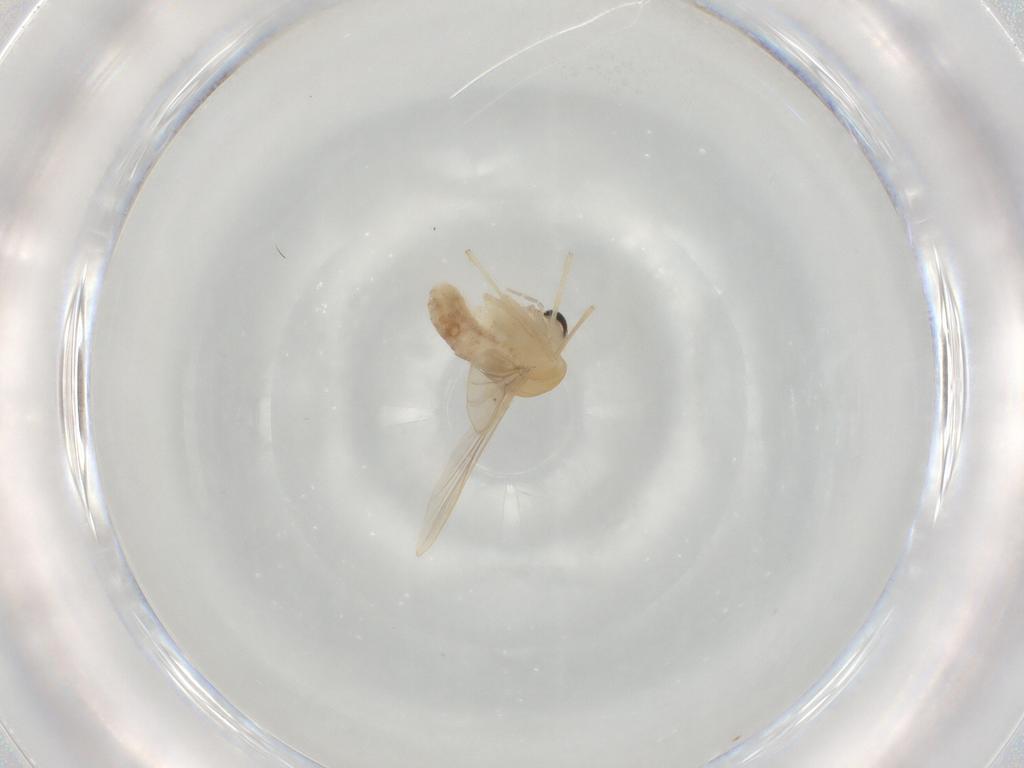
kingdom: Animalia
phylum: Arthropoda
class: Insecta
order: Diptera
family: Chironomidae
